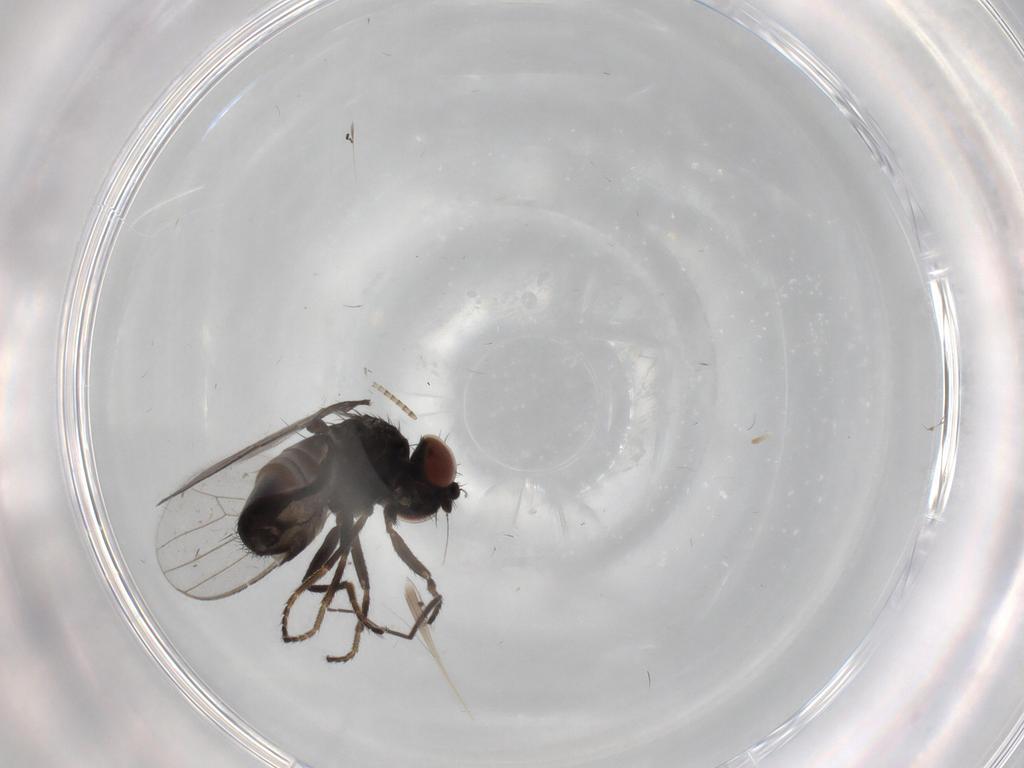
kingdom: Animalia
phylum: Arthropoda
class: Insecta
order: Diptera
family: Milichiidae
